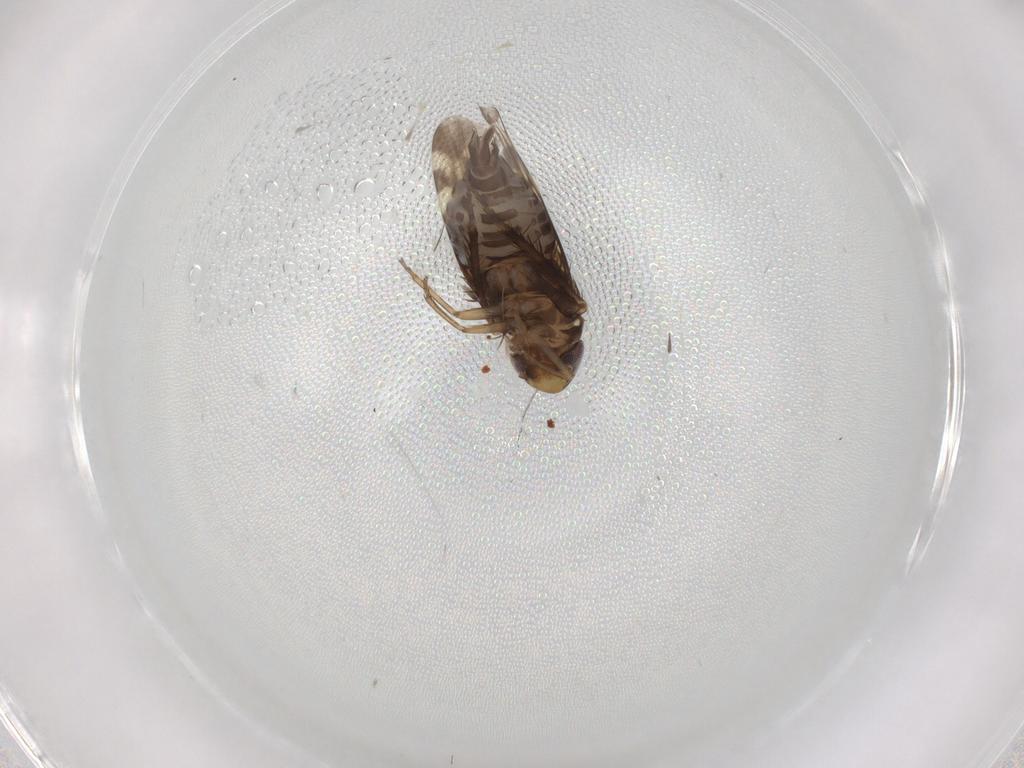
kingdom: Animalia
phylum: Arthropoda
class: Insecta
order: Hemiptera
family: Cicadellidae
